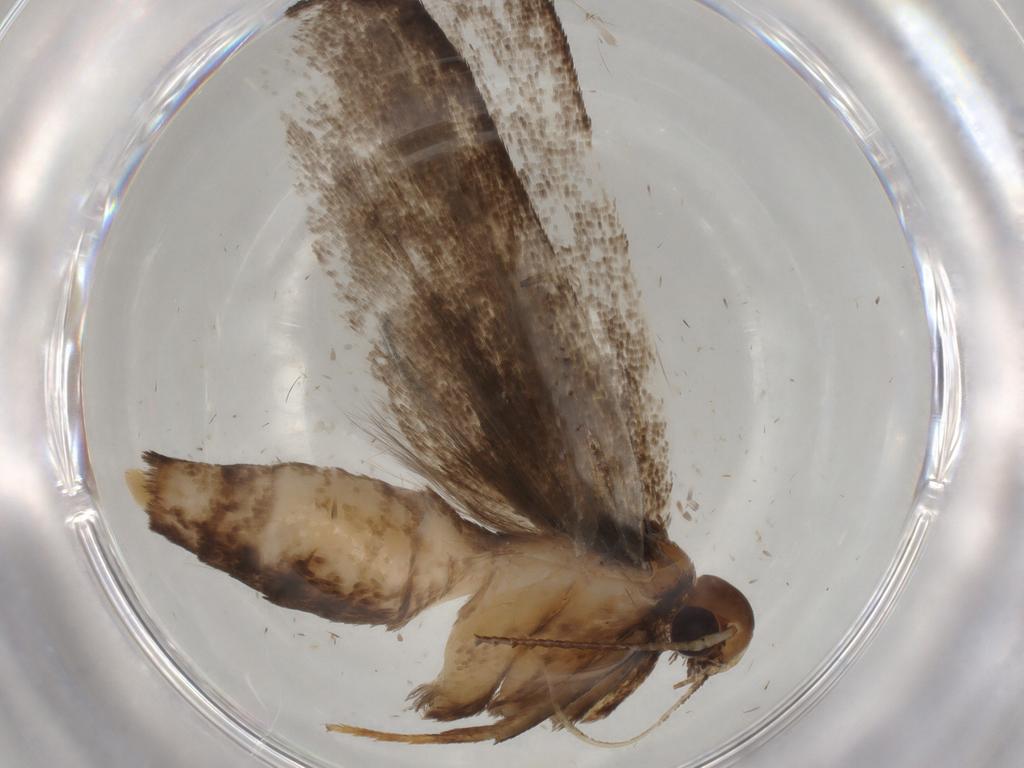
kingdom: Animalia
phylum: Arthropoda
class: Insecta
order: Lepidoptera
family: Gelechiidae
